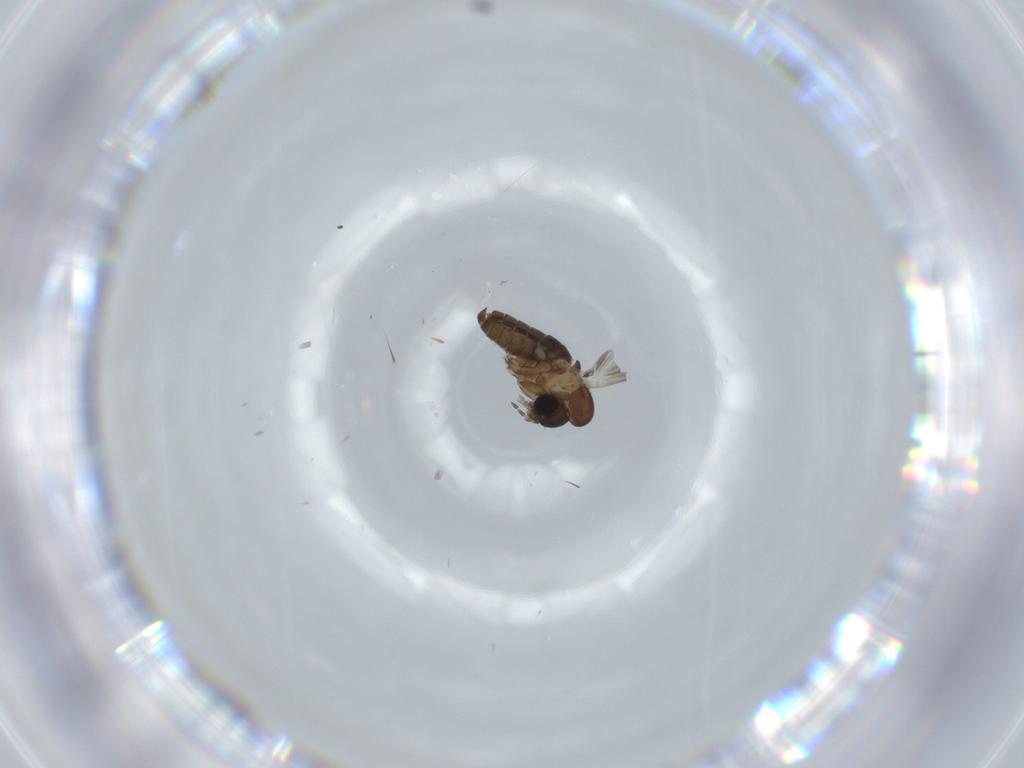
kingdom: Animalia
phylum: Arthropoda
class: Insecta
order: Diptera
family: Psychodidae
